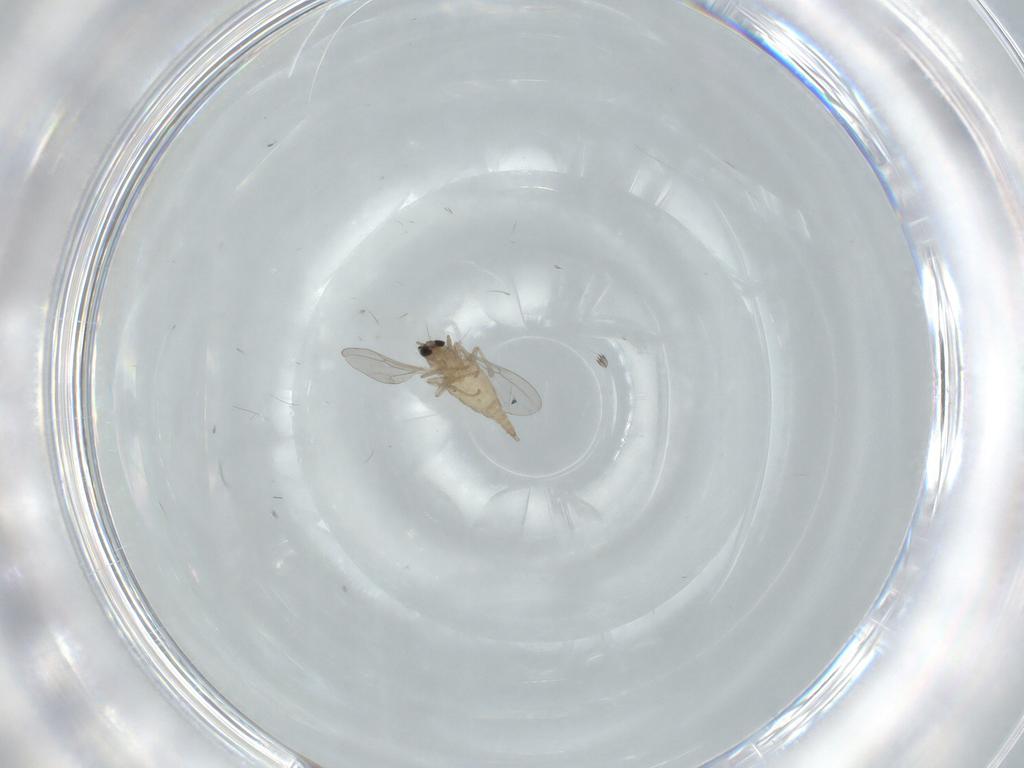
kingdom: Animalia
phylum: Arthropoda
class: Insecta
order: Diptera
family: Cecidomyiidae
